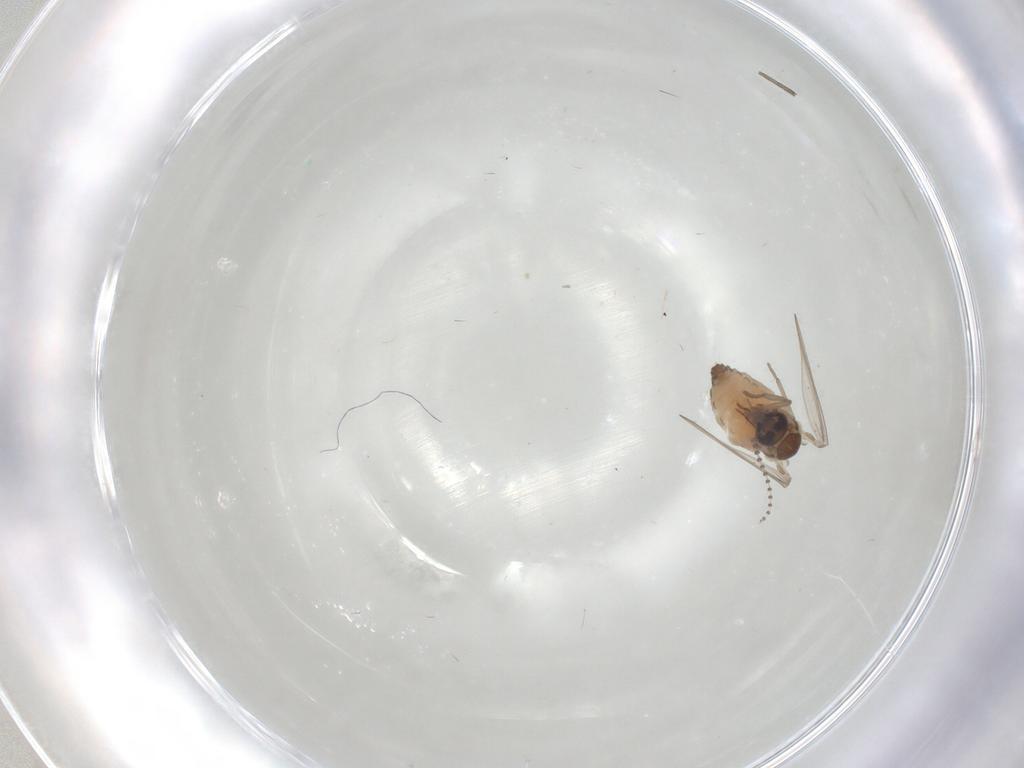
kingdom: Animalia
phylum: Arthropoda
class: Insecta
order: Diptera
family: Psychodidae
